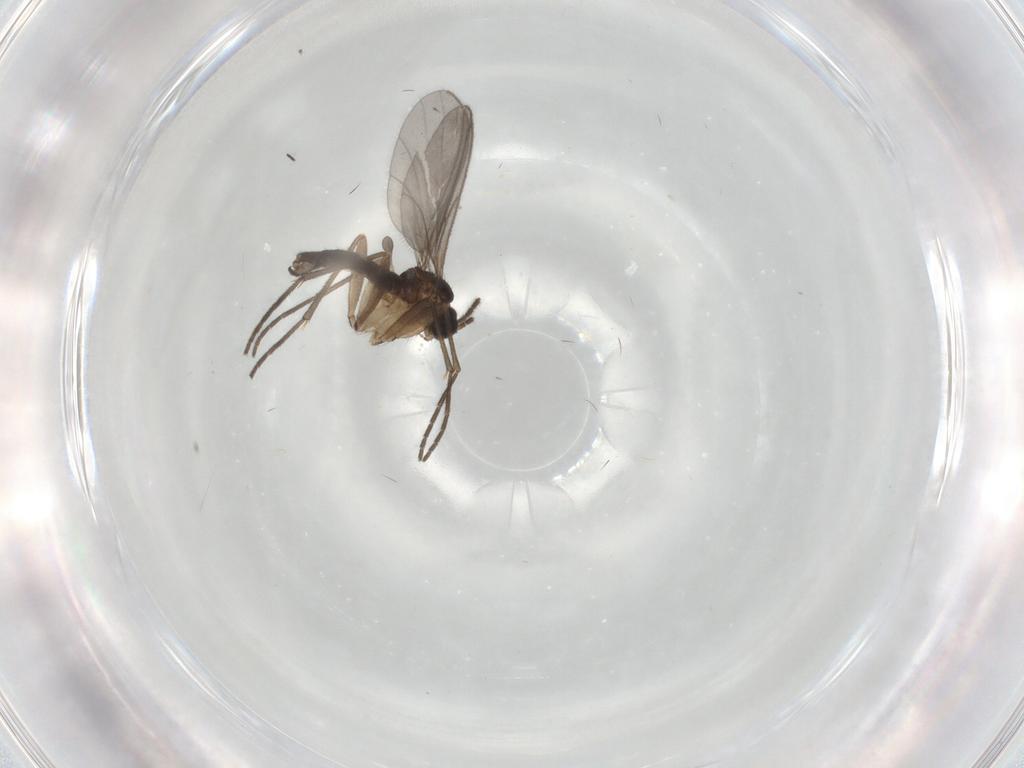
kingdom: Animalia
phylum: Arthropoda
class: Insecta
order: Diptera
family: Sciaridae
